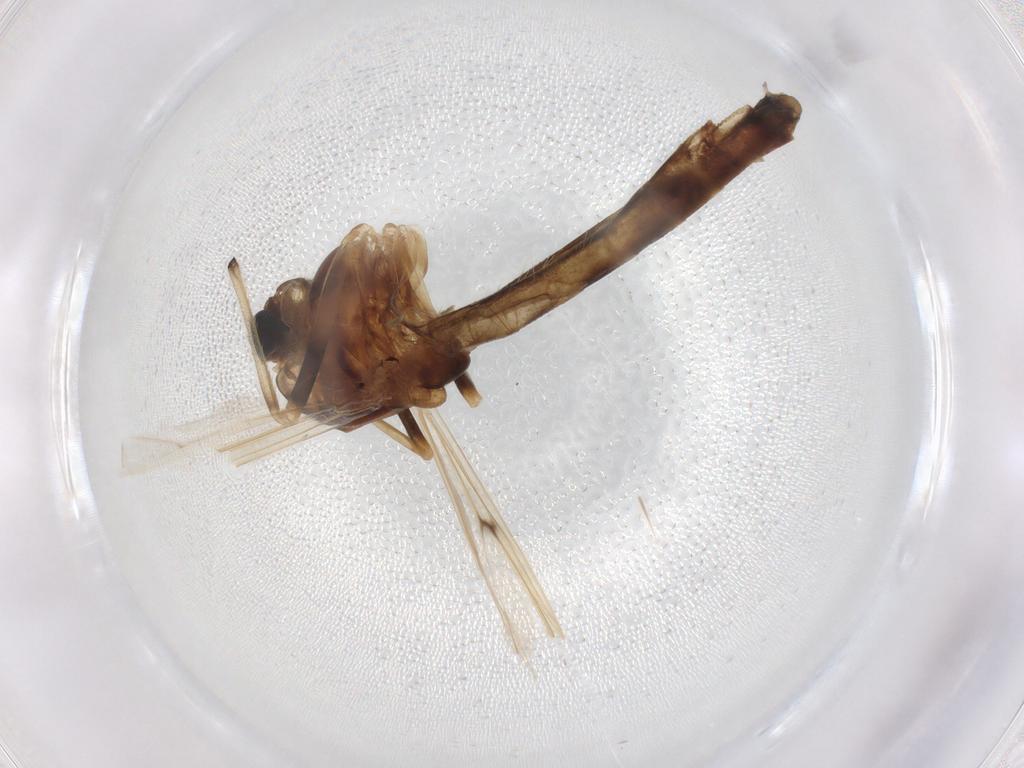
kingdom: Animalia
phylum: Arthropoda
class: Insecta
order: Diptera
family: Chironomidae
